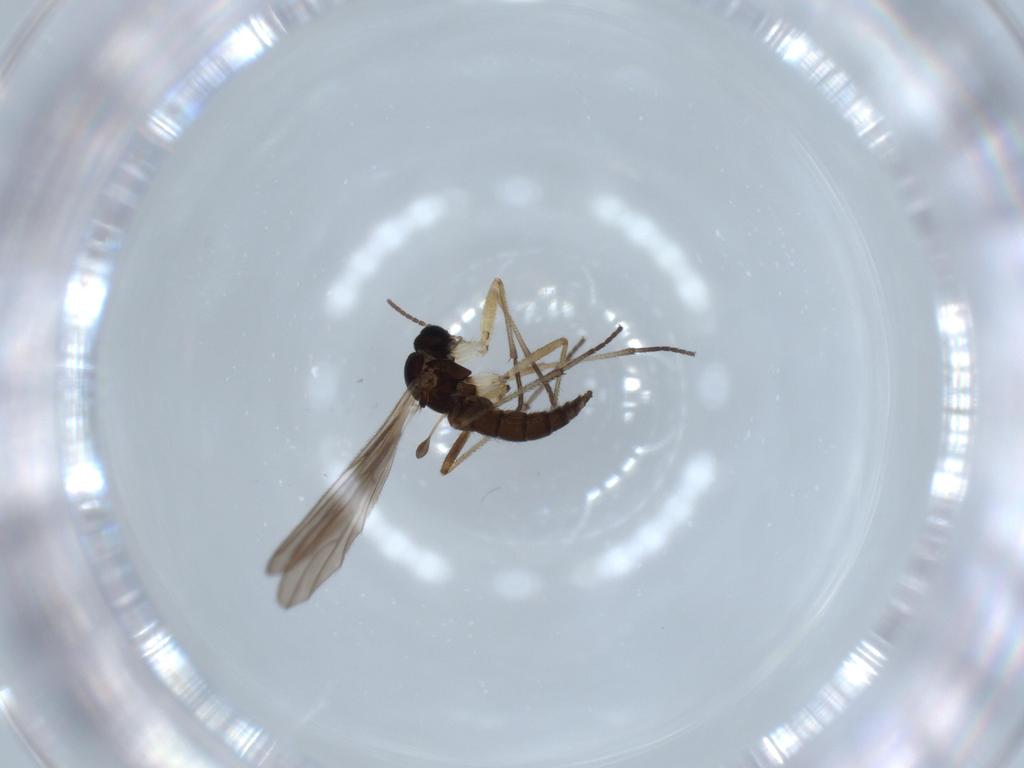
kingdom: Animalia
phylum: Arthropoda
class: Insecta
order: Diptera
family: Sciaridae
